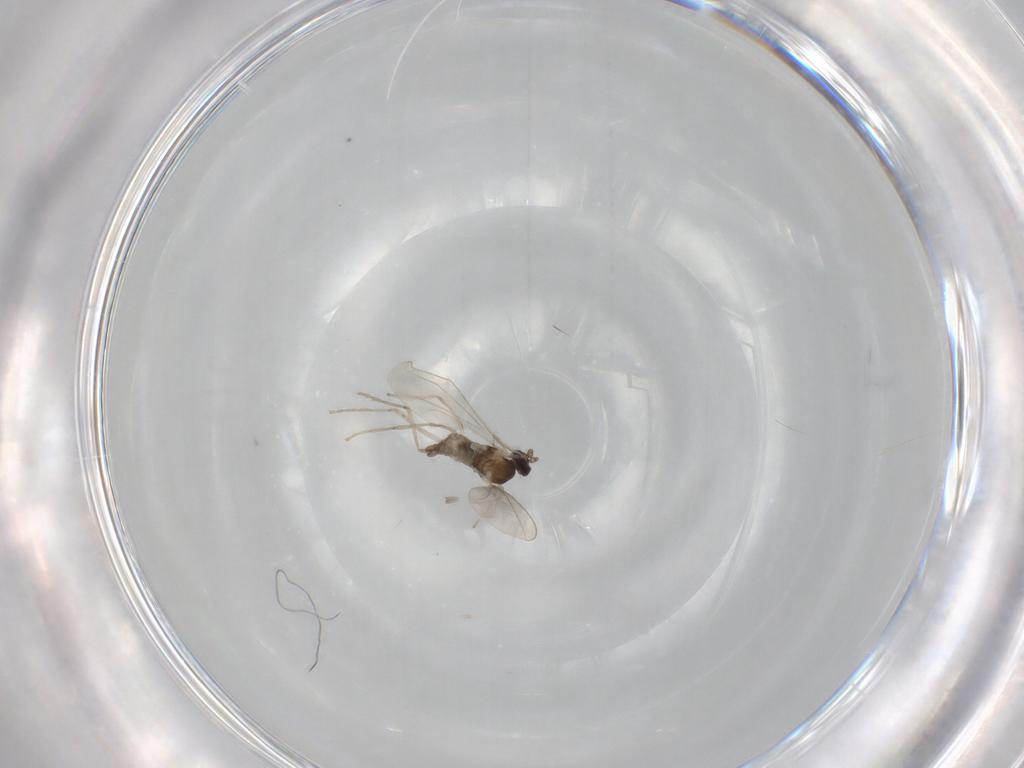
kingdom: Animalia
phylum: Arthropoda
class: Insecta
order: Diptera
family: Cecidomyiidae
